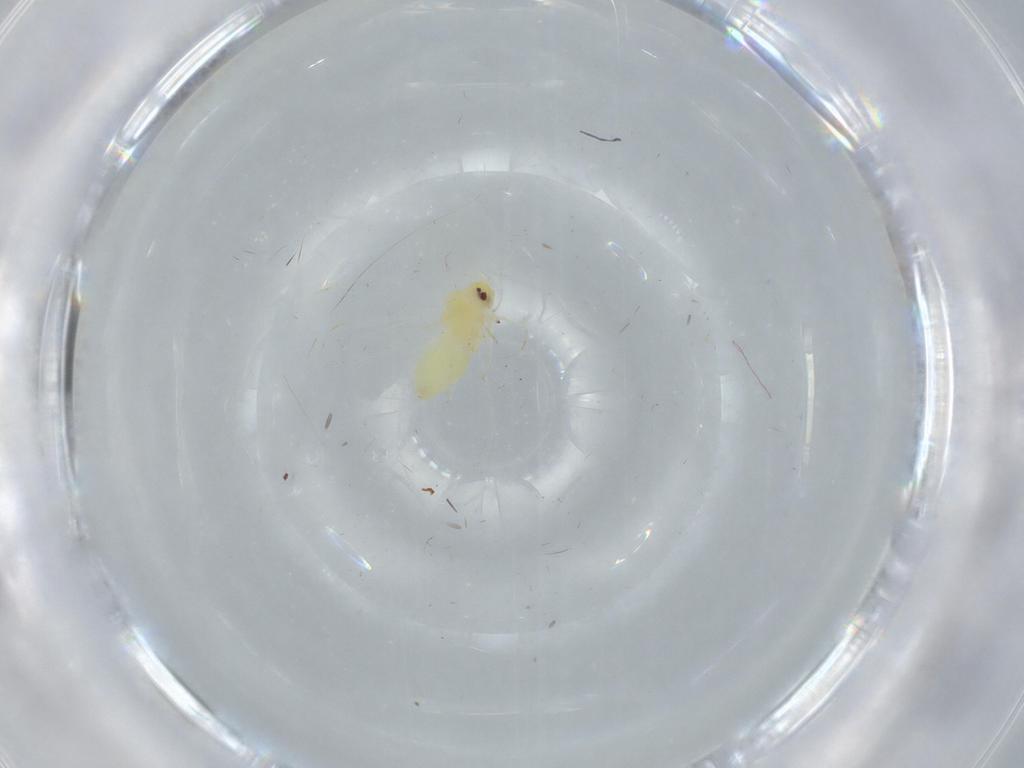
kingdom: Animalia
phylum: Arthropoda
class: Insecta
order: Hemiptera
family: Aleyrodidae
